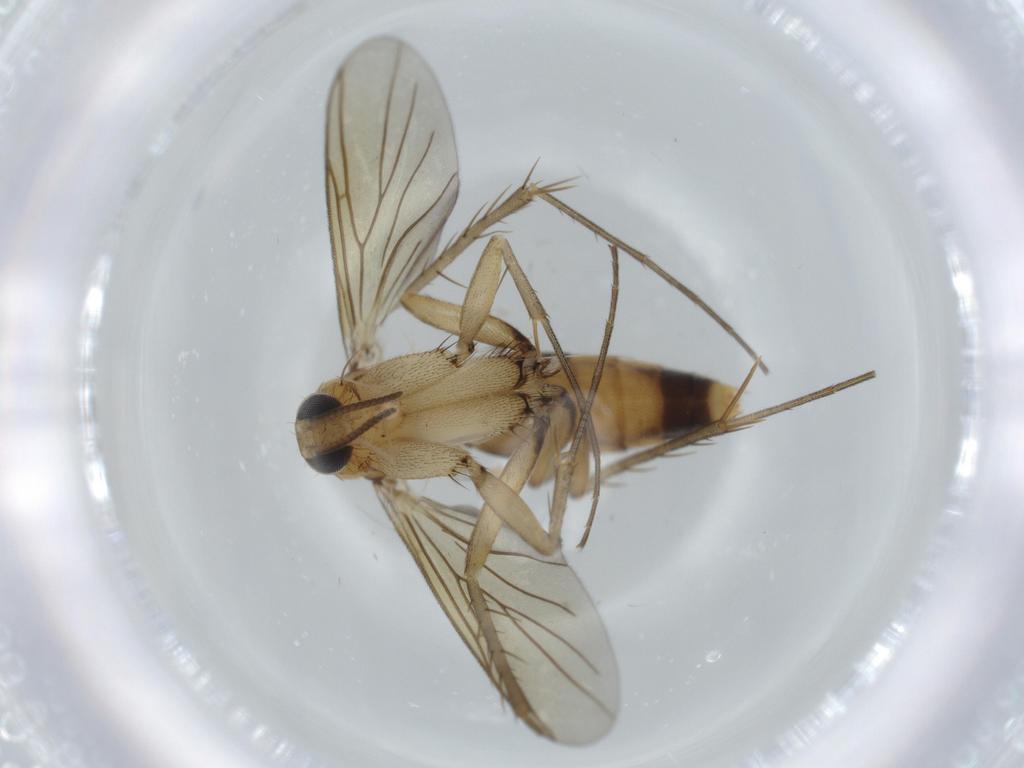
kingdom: Animalia
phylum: Arthropoda
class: Insecta
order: Diptera
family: Mycetophilidae
